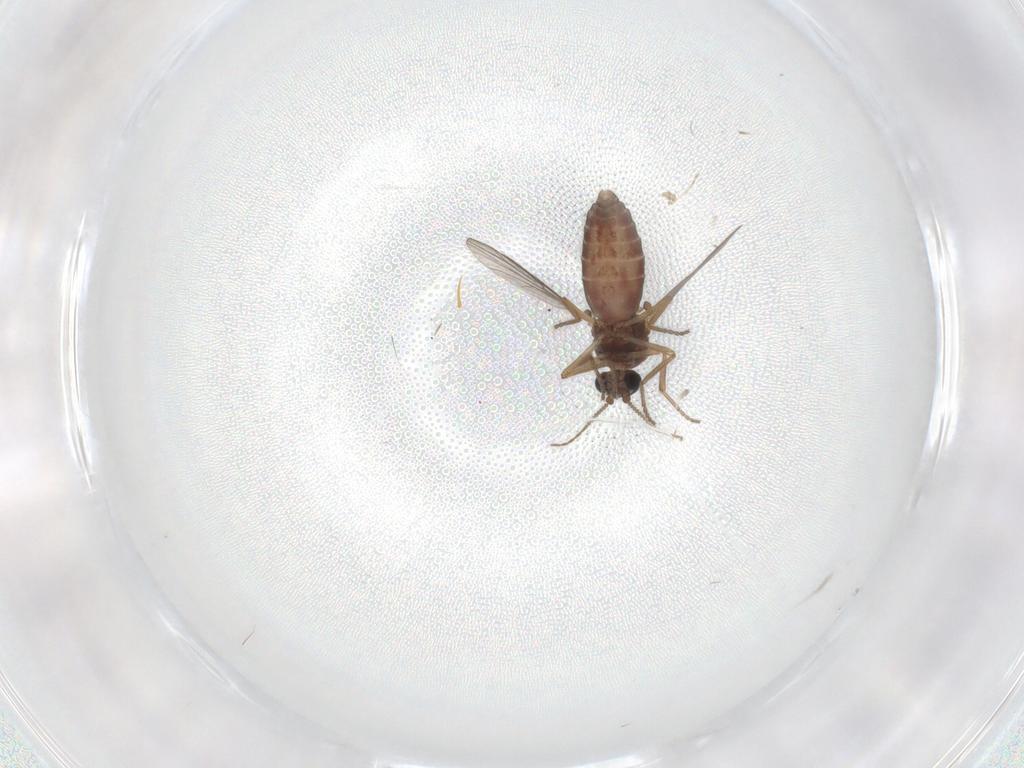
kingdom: Animalia
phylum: Arthropoda
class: Insecta
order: Diptera
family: Ceratopogonidae
